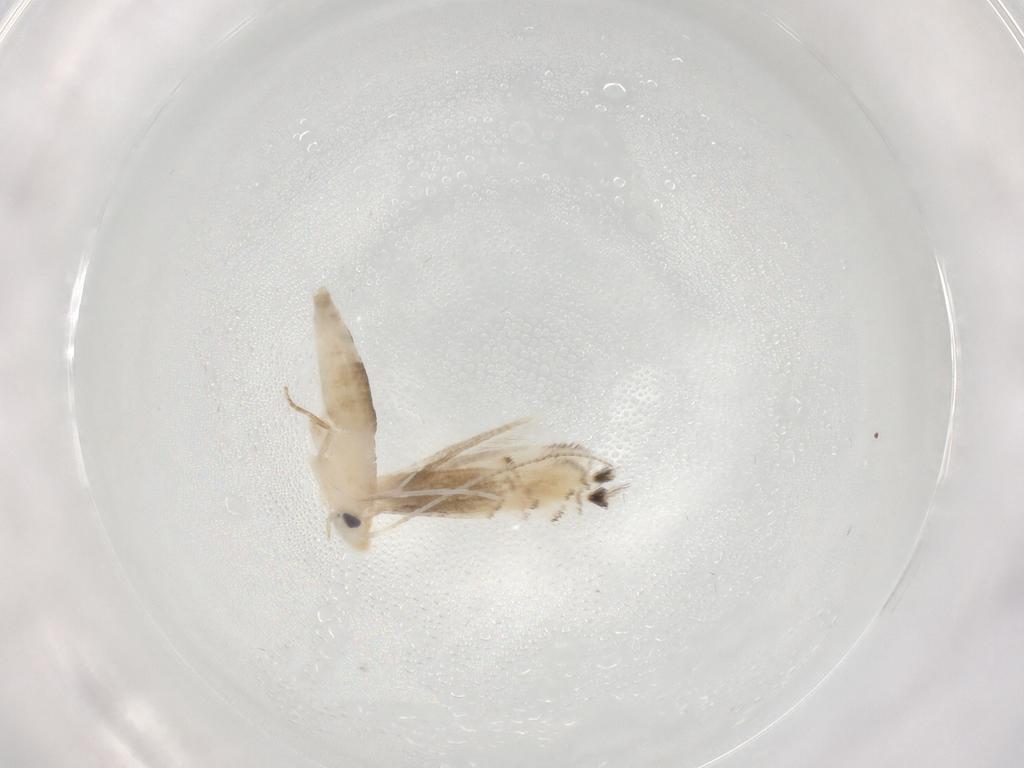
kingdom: Animalia
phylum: Arthropoda
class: Insecta
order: Lepidoptera
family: Gracillariidae
